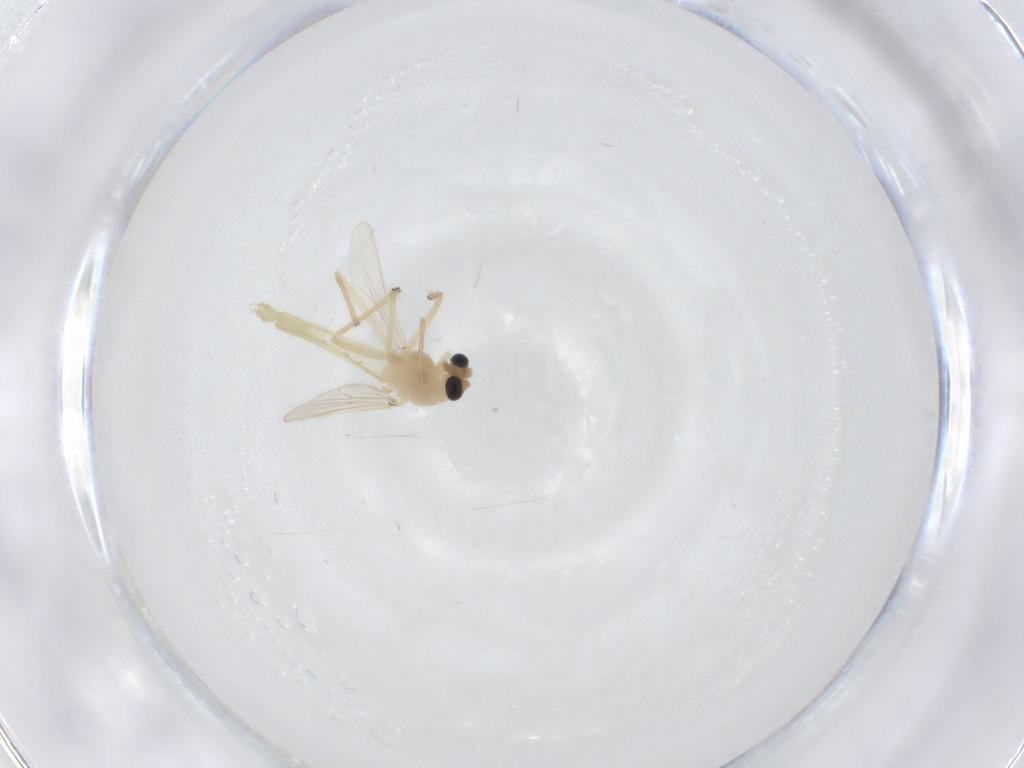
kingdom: Animalia
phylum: Arthropoda
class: Insecta
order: Diptera
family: Chironomidae
